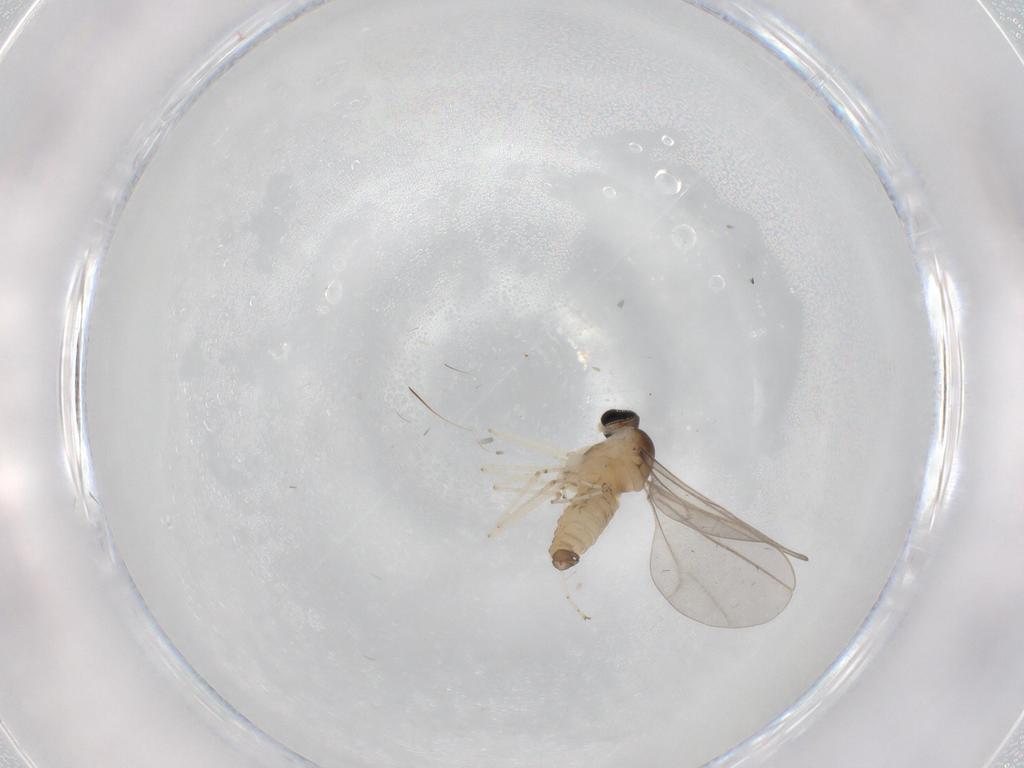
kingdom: Animalia
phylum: Arthropoda
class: Insecta
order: Diptera
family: Cecidomyiidae
